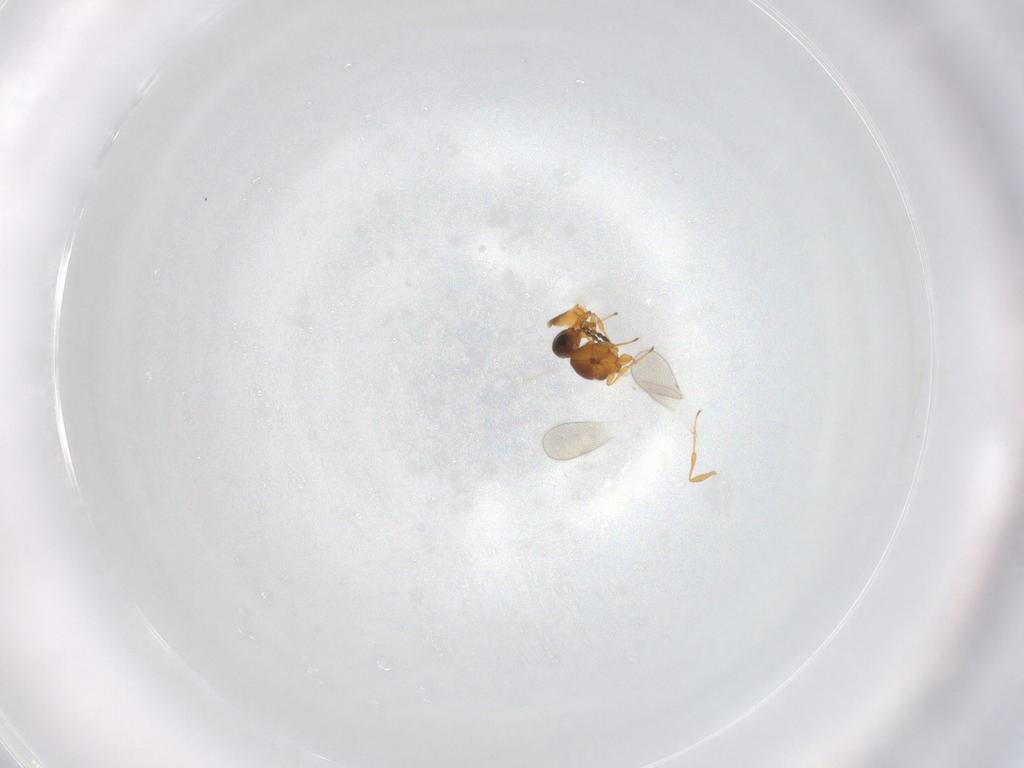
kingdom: Animalia
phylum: Arthropoda
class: Insecta
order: Hymenoptera
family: Platygastridae
